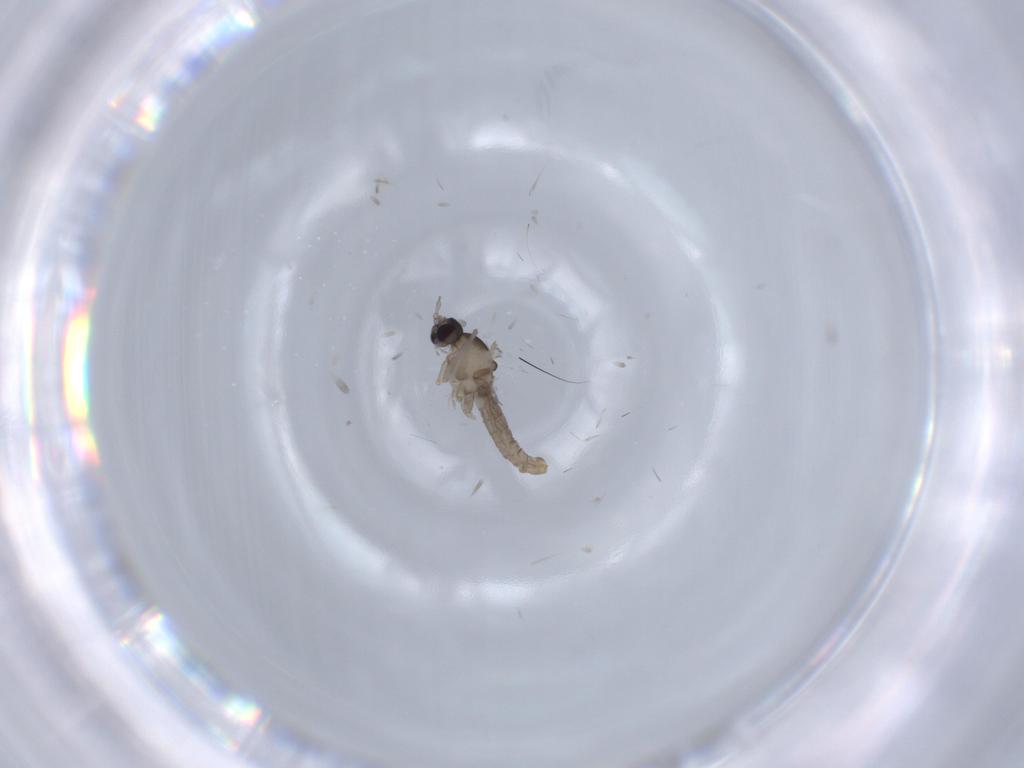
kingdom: Animalia
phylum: Arthropoda
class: Insecta
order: Diptera
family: Cecidomyiidae
